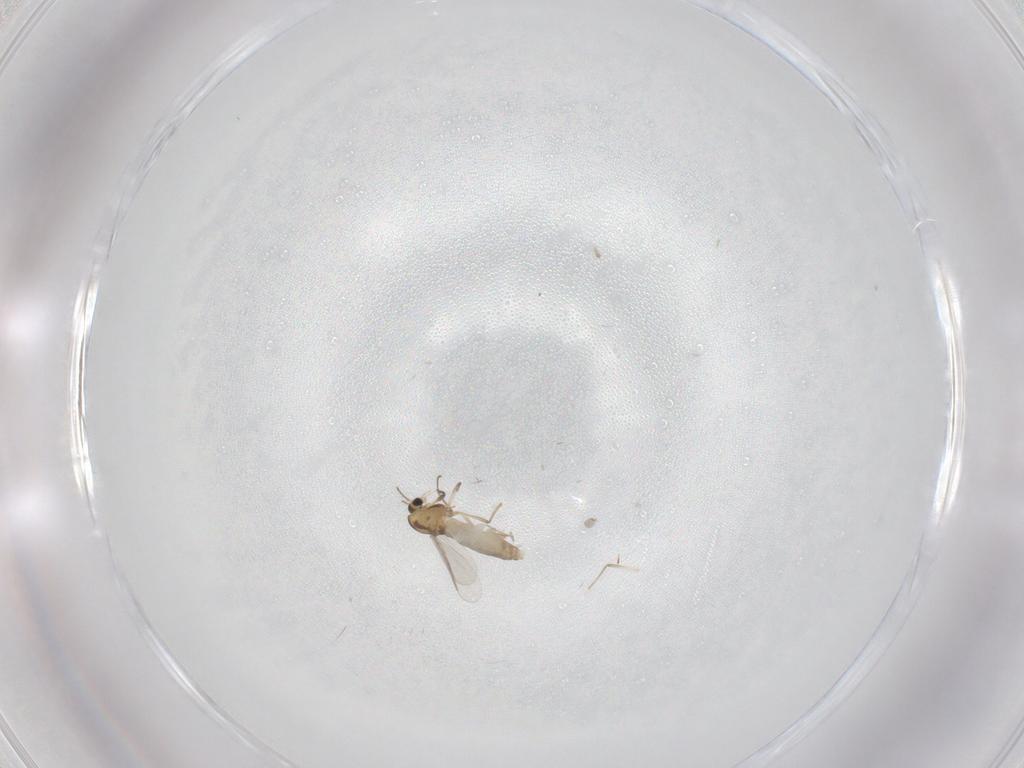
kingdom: Animalia
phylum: Arthropoda
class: Insecta
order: Diptera
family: Chironomidae
